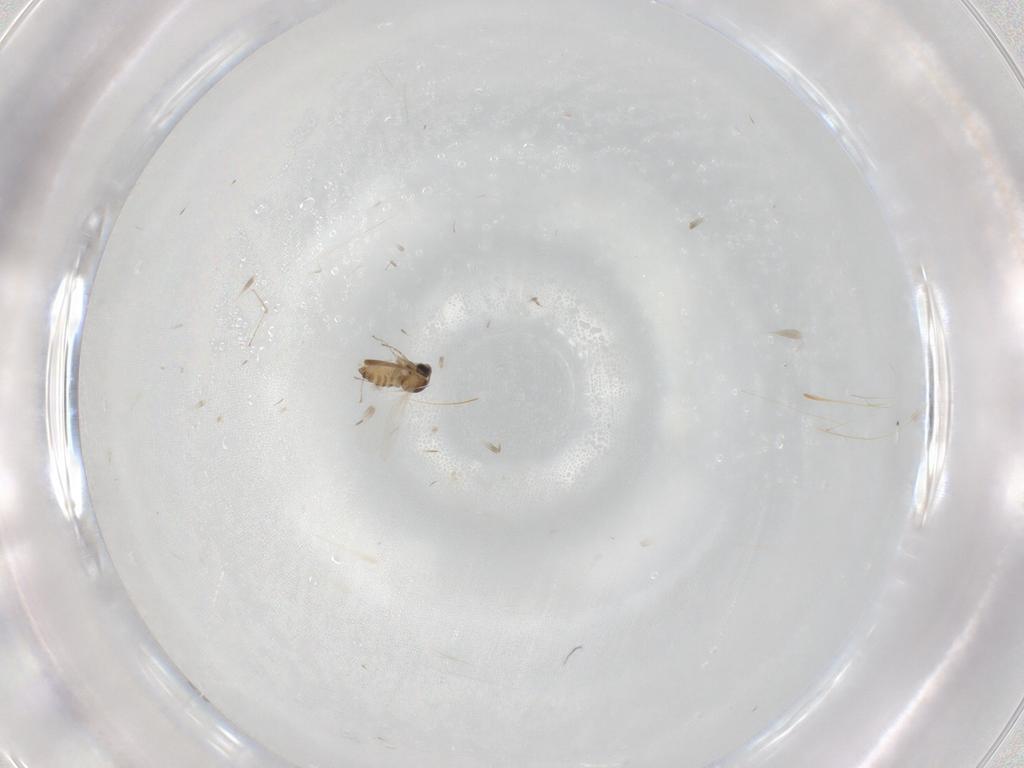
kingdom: Animalia
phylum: Arthropoda
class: Insecta
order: Diptera
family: Cecidomyiidae
